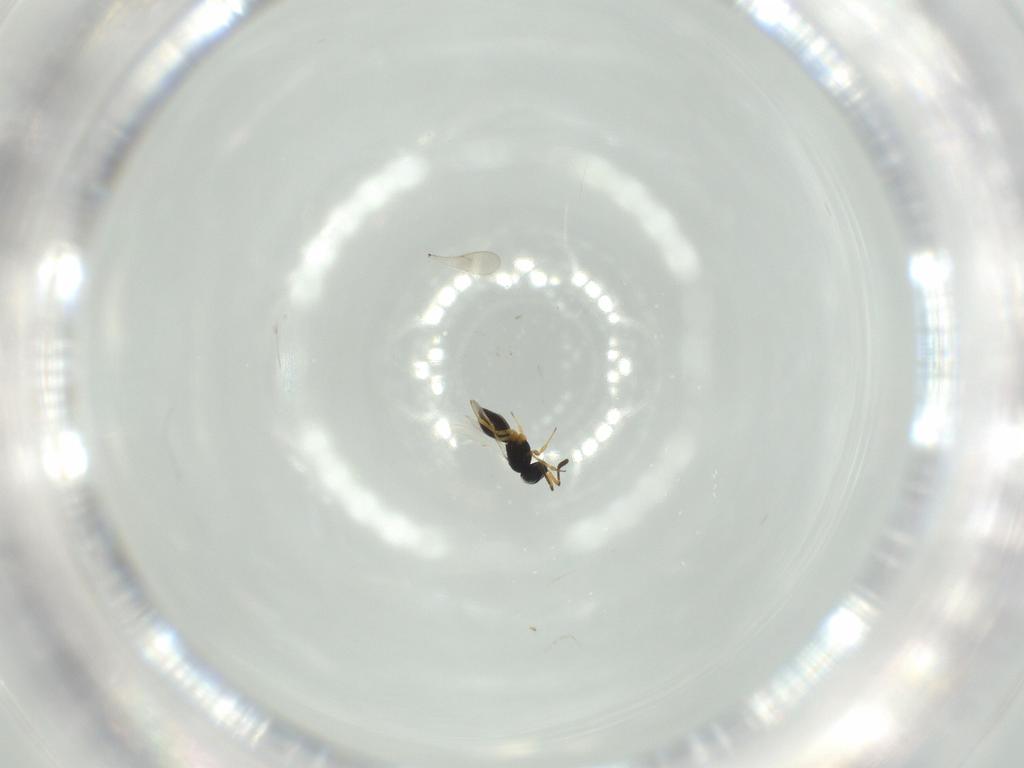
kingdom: Animalia
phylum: Arthropoda
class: Insecta
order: Hymenoptera
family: Scelionidae
